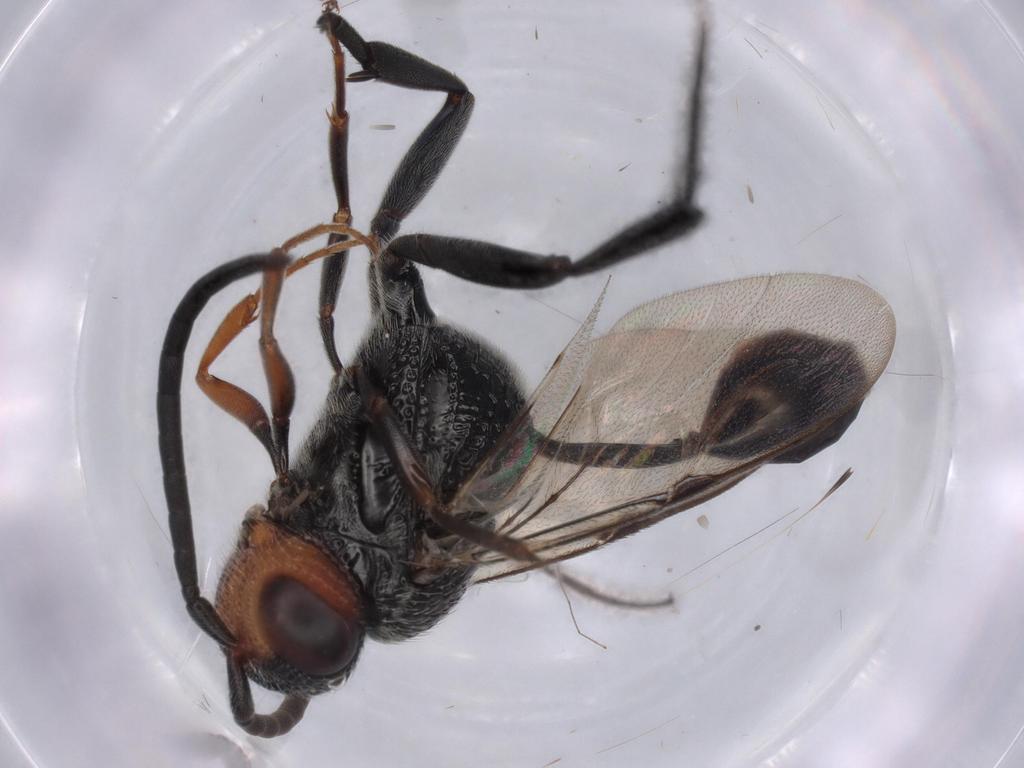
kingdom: Animalia
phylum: Arthropoda
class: Insecta
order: Hymenoptera
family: Evaniidae
